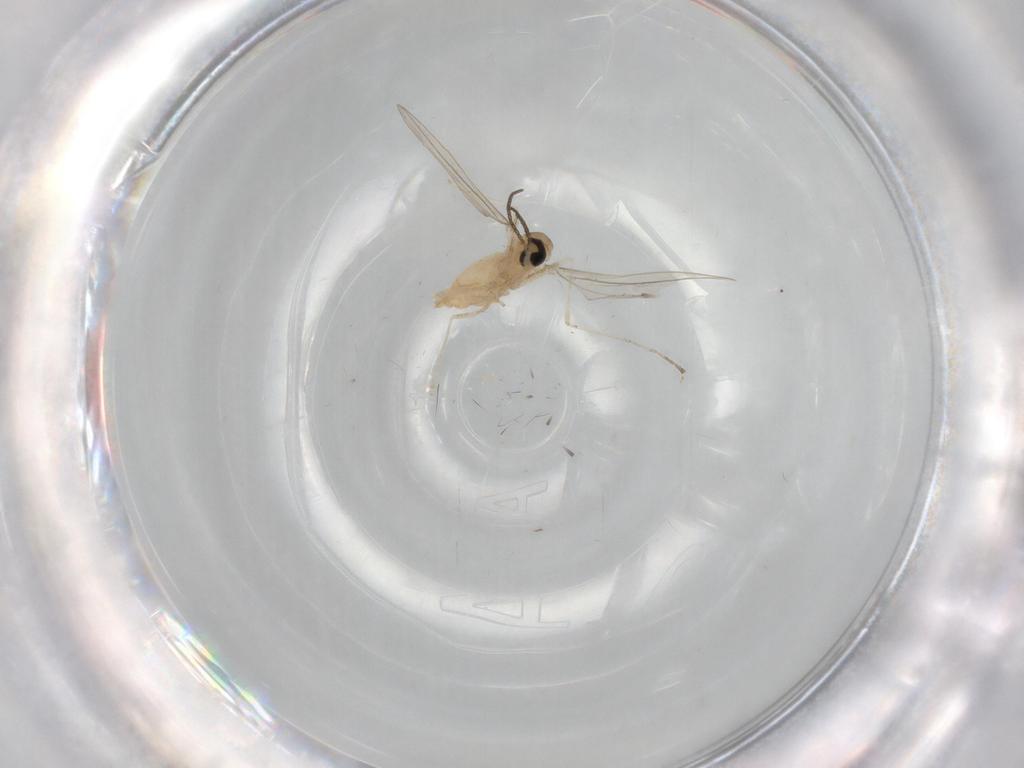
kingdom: Animalia
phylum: Arthropoda
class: Insecta
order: Diptera
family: Cecidomyiidae
